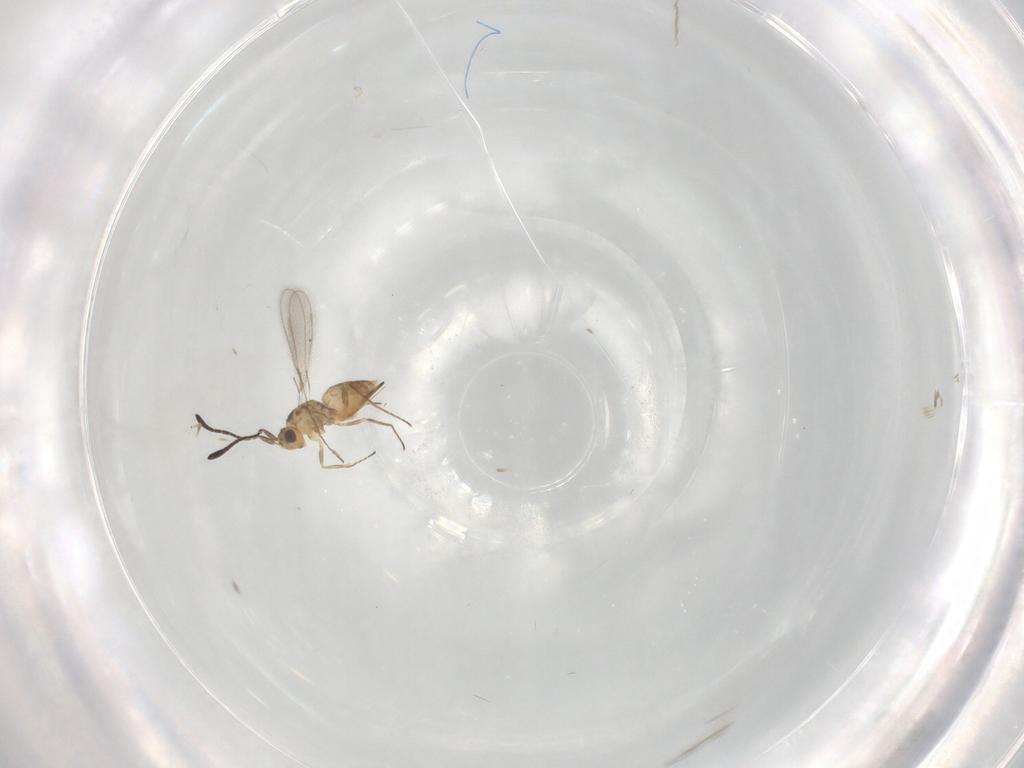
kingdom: Animalia
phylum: Arthropoda
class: Insecta
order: Hymenoptera
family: Mymaridae
